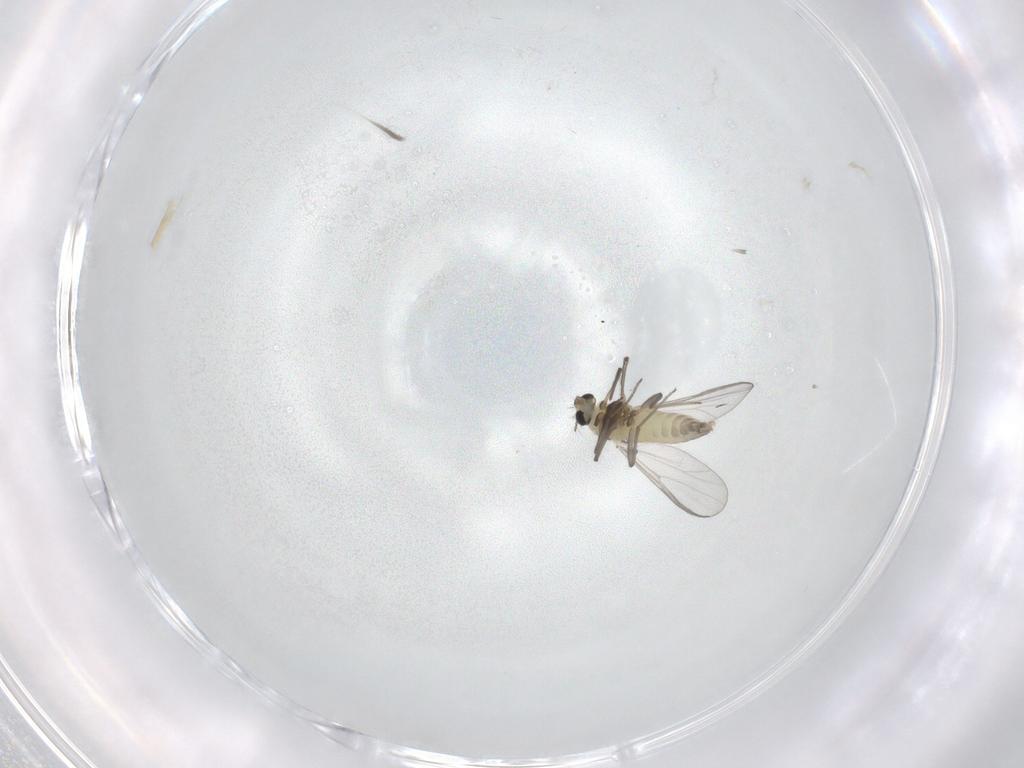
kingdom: Animalia
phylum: Arthropoda
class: Insecta
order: Diptera
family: Chironomidae
